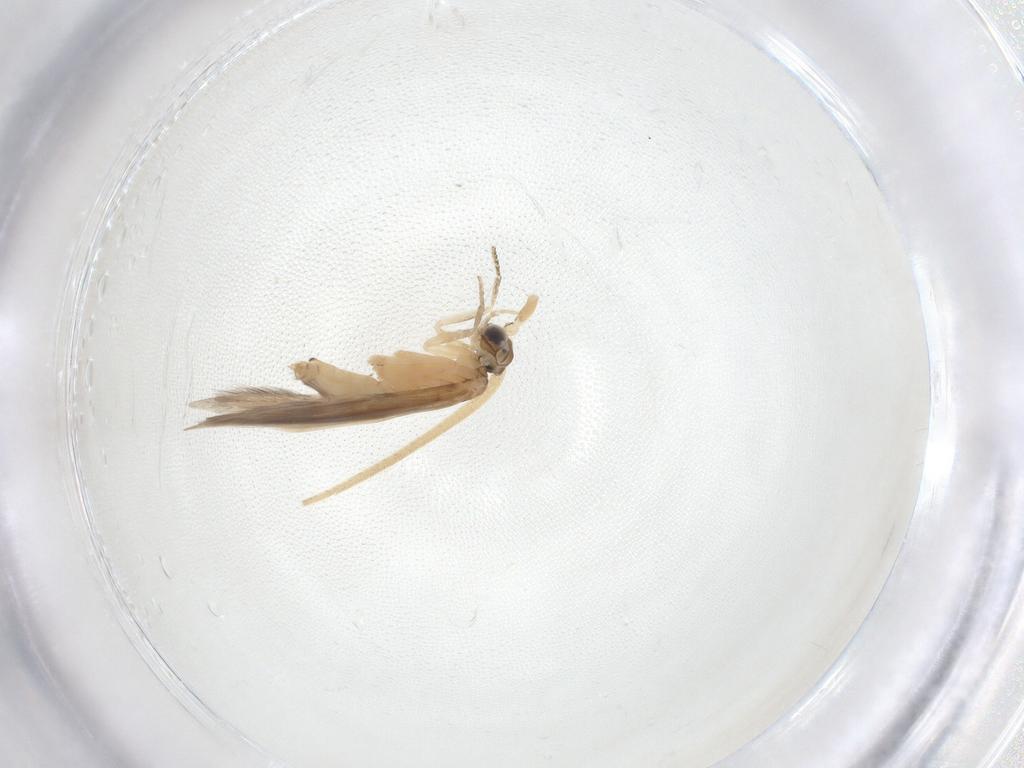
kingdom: Animalia
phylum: Arthropoda
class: Insecta
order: Trichoptera
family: Hydroptilidae
